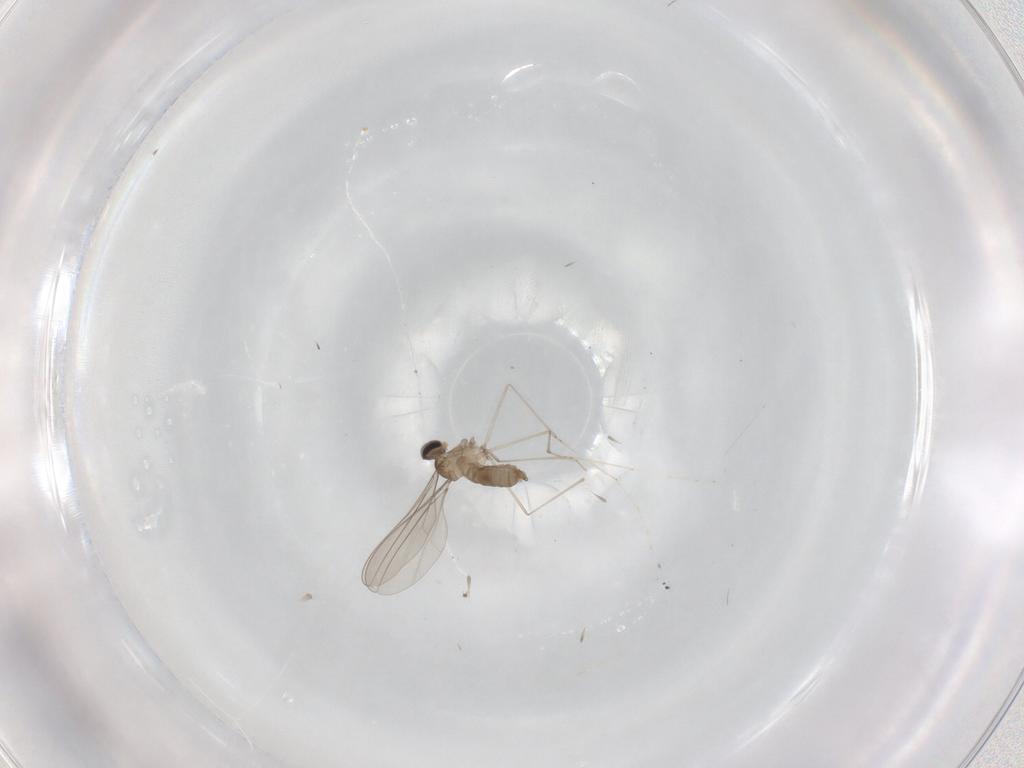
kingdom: Animalia
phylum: Arthropoda
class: Insecta
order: Diptera
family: Cecidomyiidae
